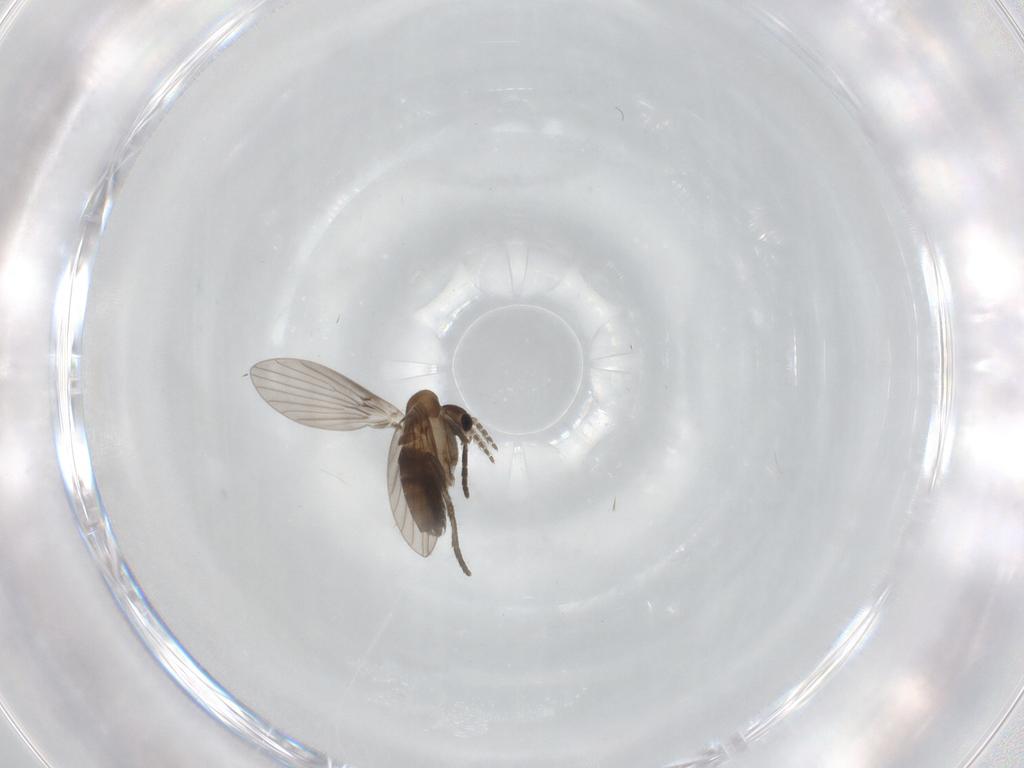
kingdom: Animalia
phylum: Arthropoda
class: Insecta
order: Diptera
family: Psychodidae
